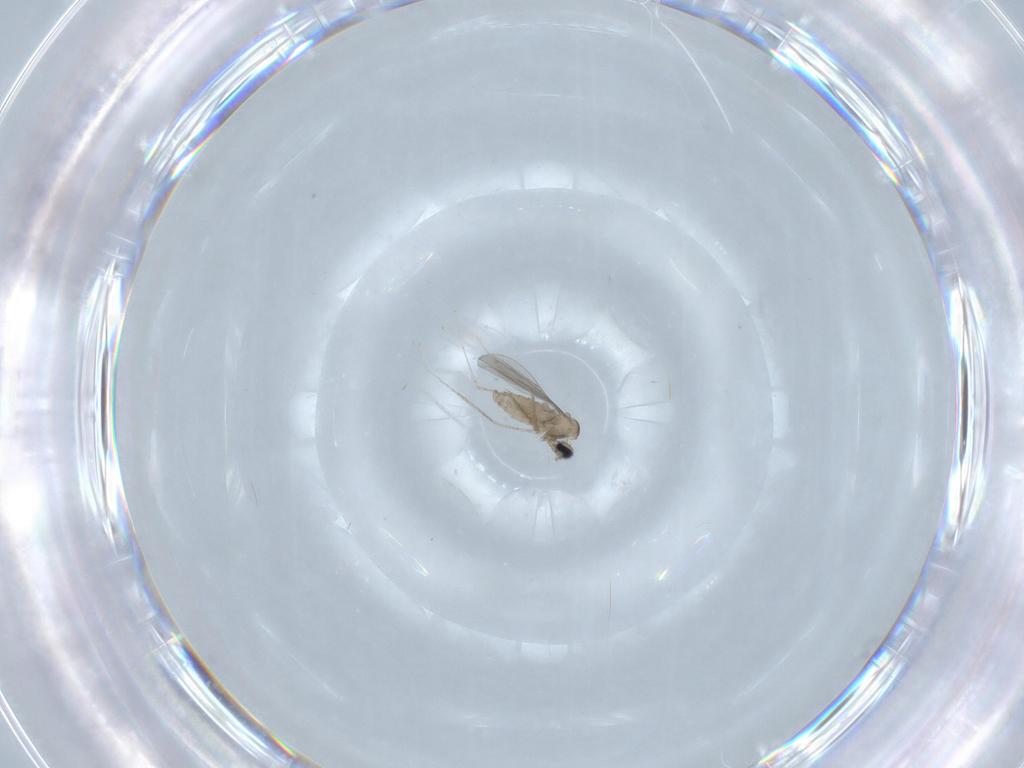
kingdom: Animalia
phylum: Arthropoda
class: Insecta
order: Diptera
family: Cecidomyiidae
